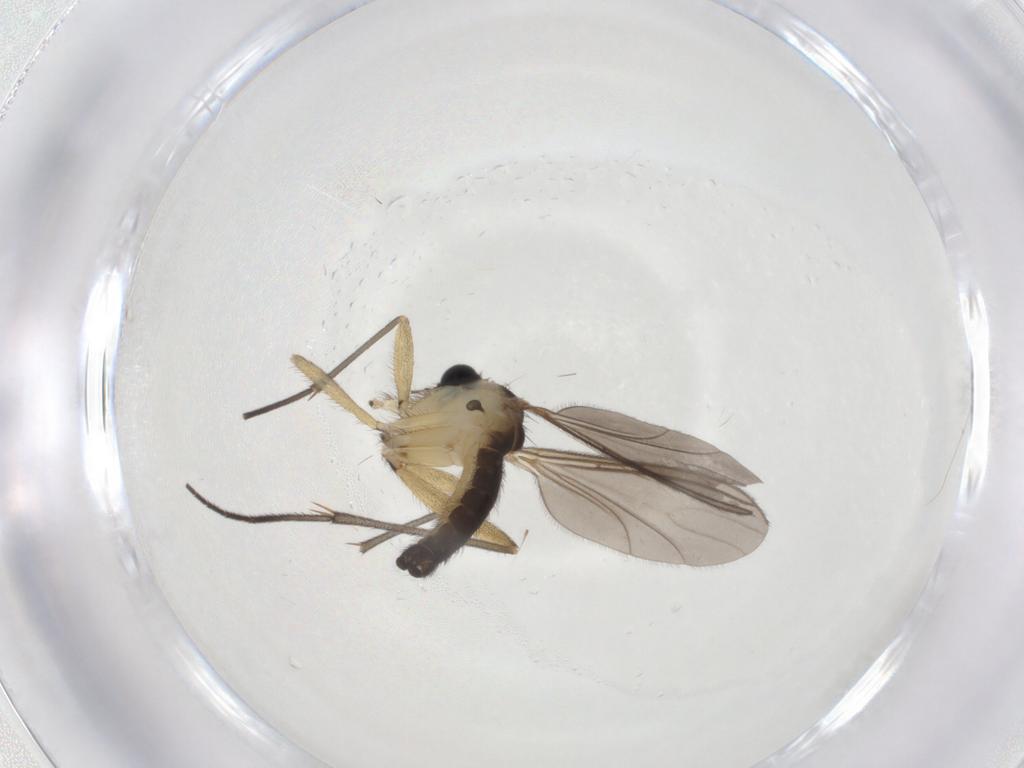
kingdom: Animalia
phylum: Arthropoda
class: Insecta
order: Diptera
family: Sciaridae
